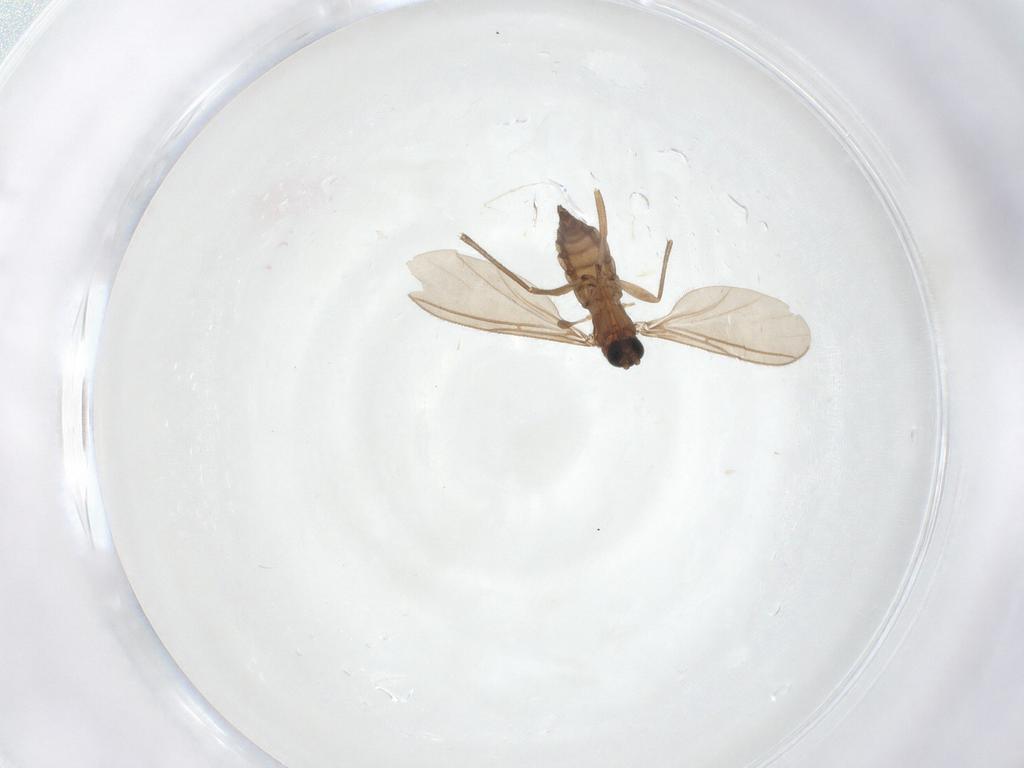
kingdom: Animalia
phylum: Arthropoda
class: Insecta
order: Diptera
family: Sciaridae
